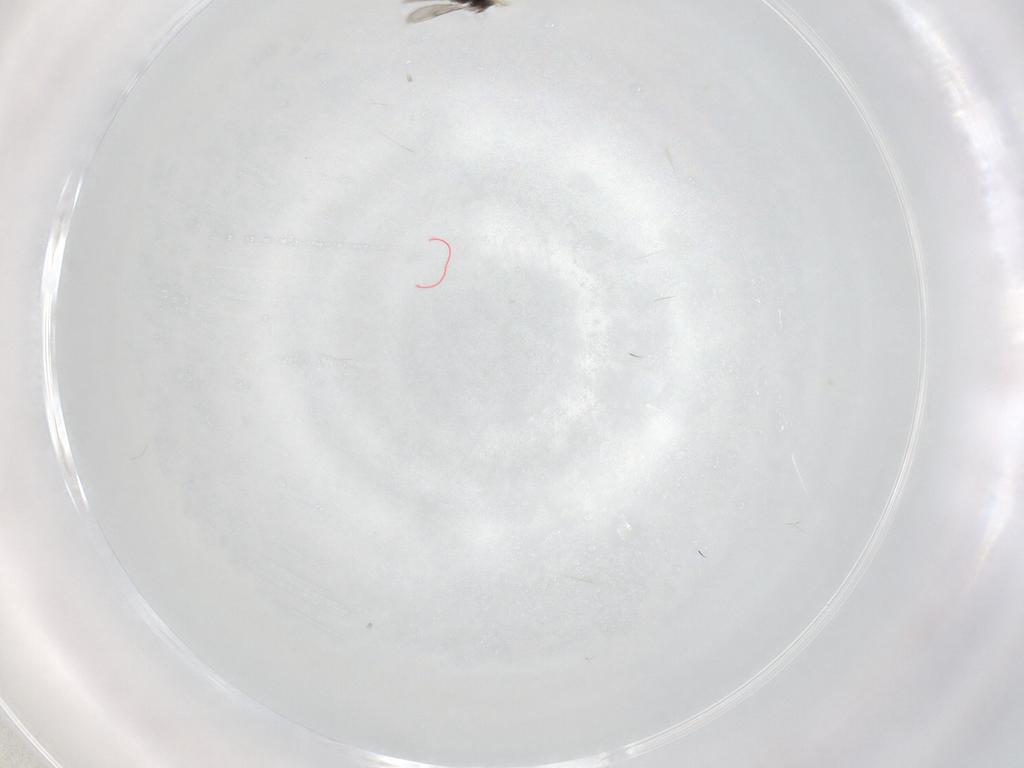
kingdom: Animalia
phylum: Arthropoda
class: Insecta
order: Hymenoptera
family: Eulophidae
